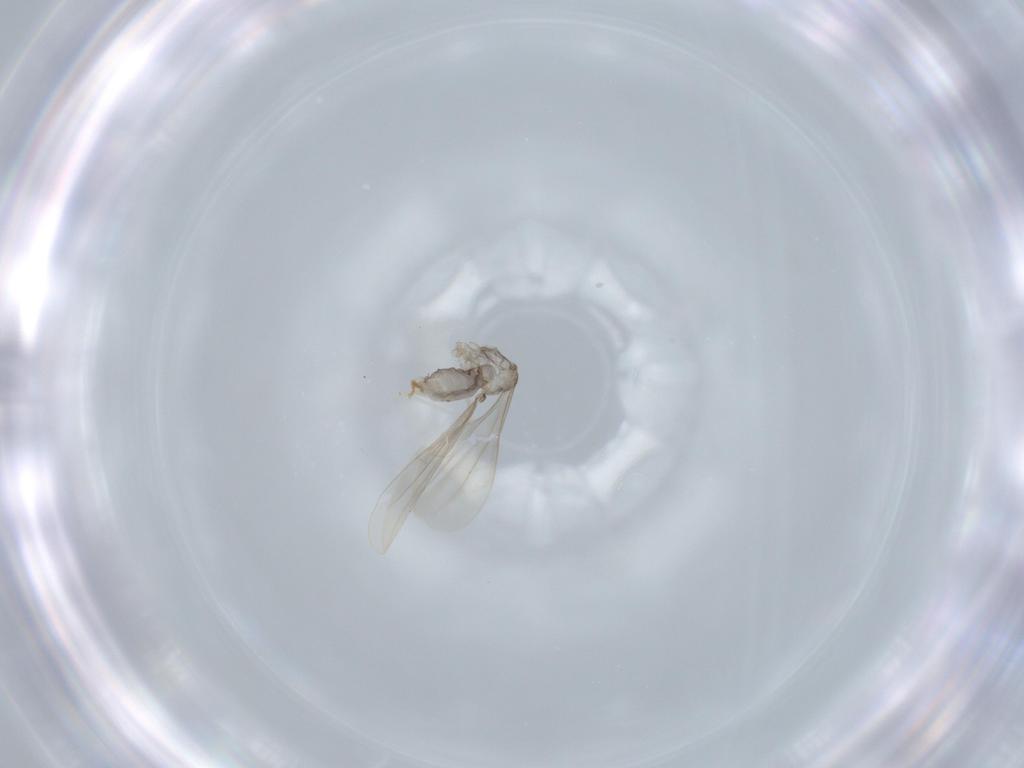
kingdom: Animalia
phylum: Arthropoda
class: Insecta
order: Diptera
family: Cecidomyiidae
